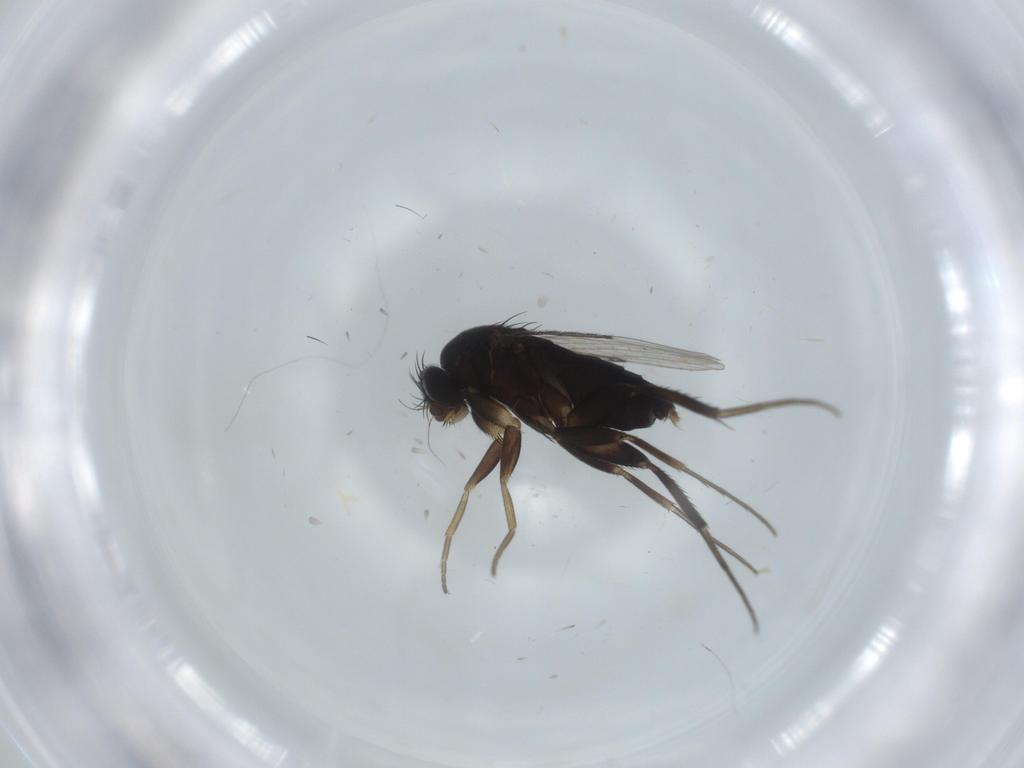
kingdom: Animalia
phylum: Arthropoda
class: Insecta
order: Diptera
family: Phoridae
